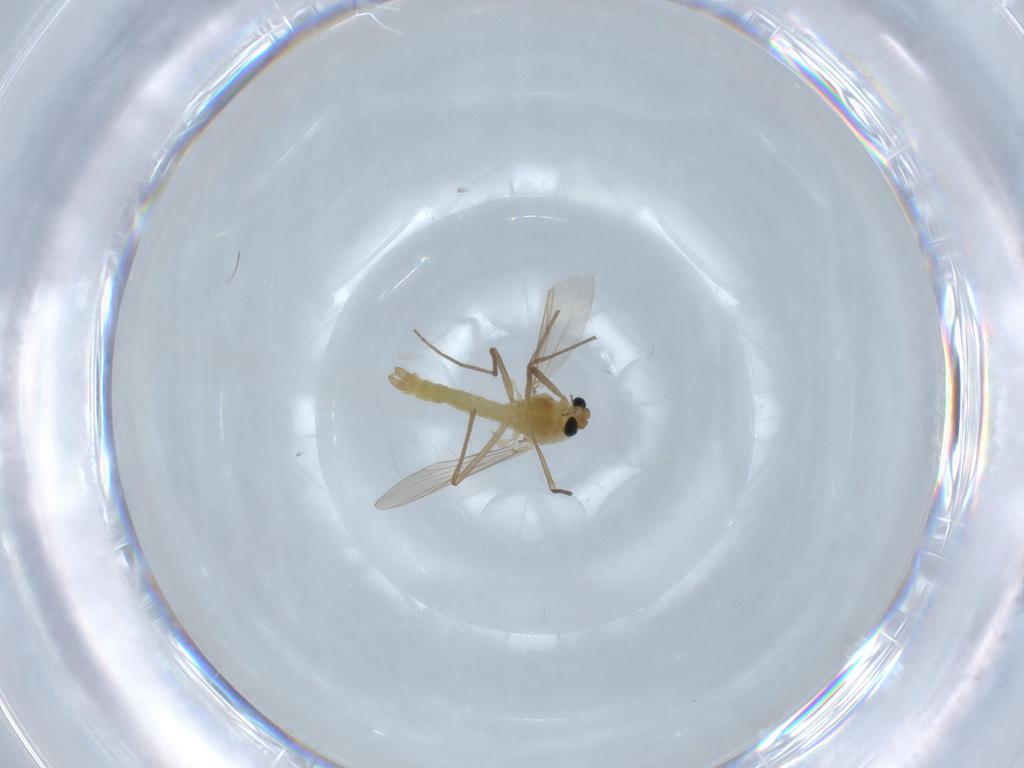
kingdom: Animalia
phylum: Arthropoda
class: Insecta
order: Diptera
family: Chironomidae
